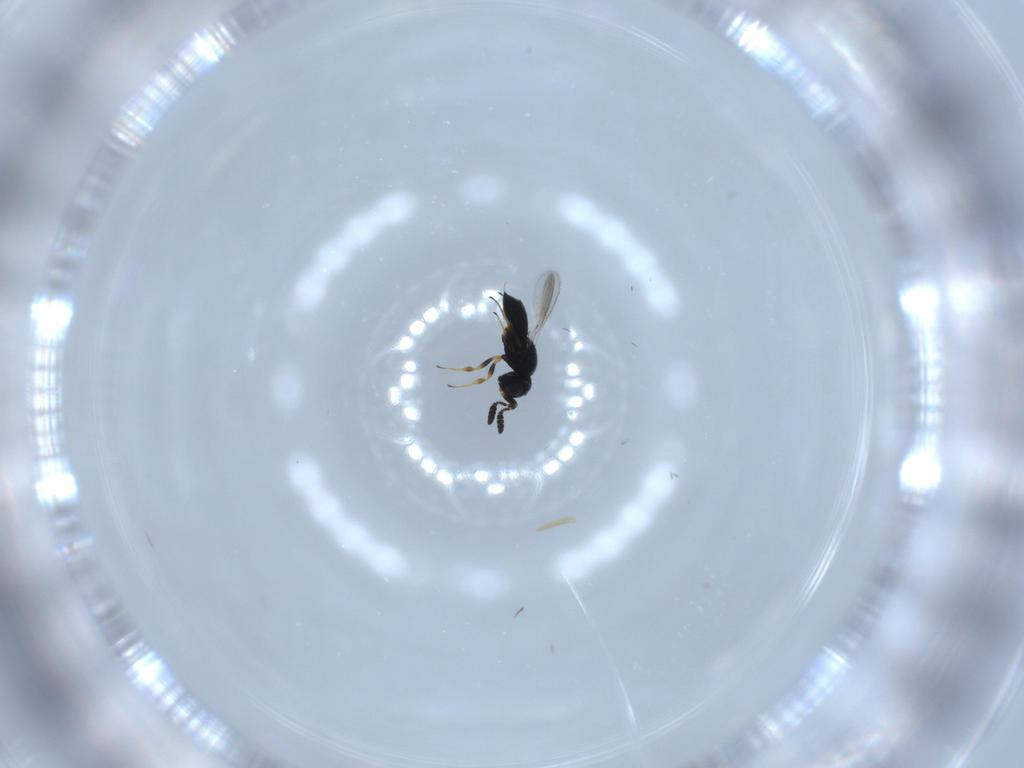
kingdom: Animalia
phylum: Arthropoda
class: Insecta
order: Hymenoptera
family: Scelionidae
